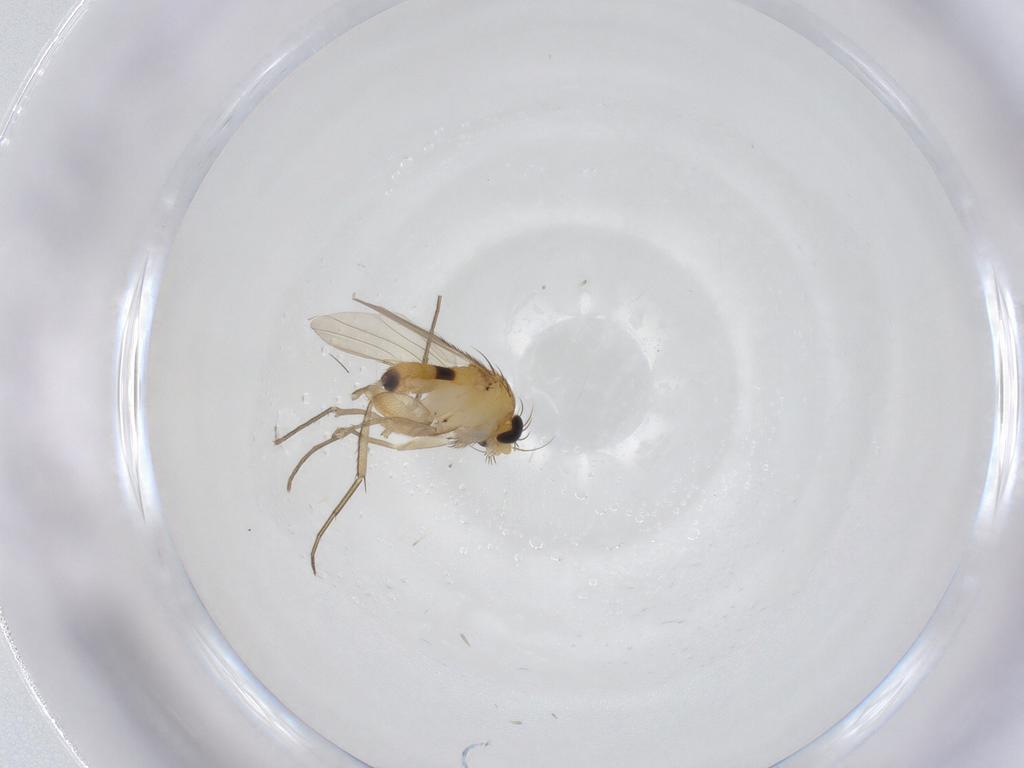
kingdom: Animalia
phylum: Arthropoda
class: Insecta
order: Diptera
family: Phoridae
